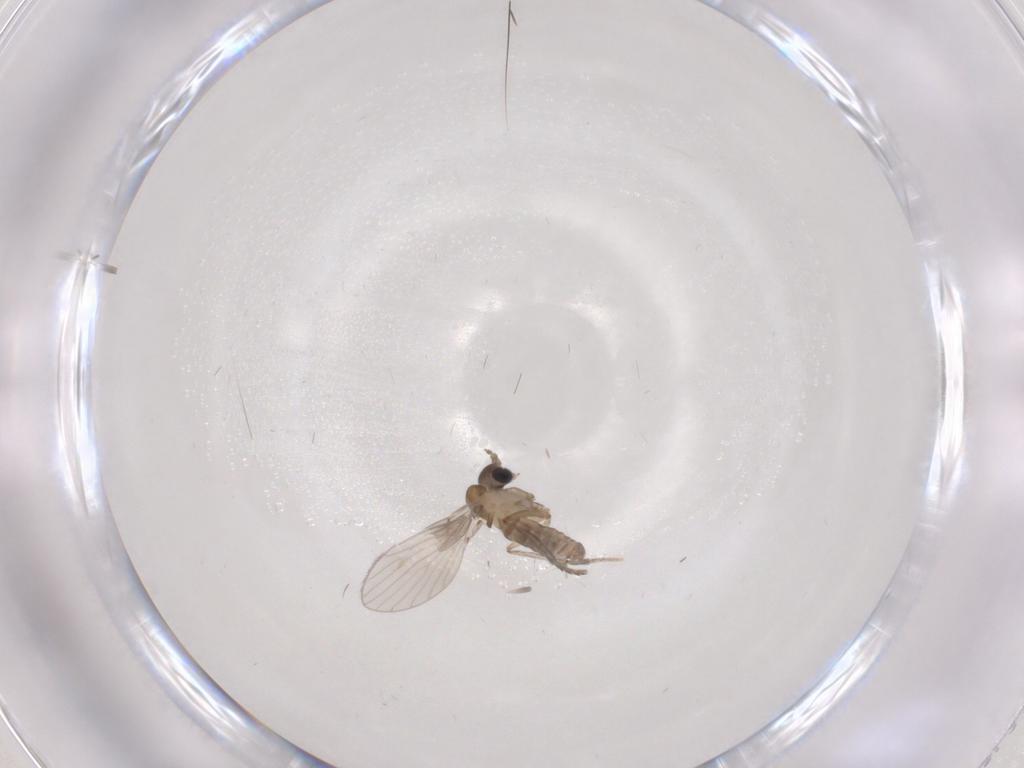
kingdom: Animalia
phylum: Arthropoda
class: Insecta
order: Diptera
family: Psychodidae
